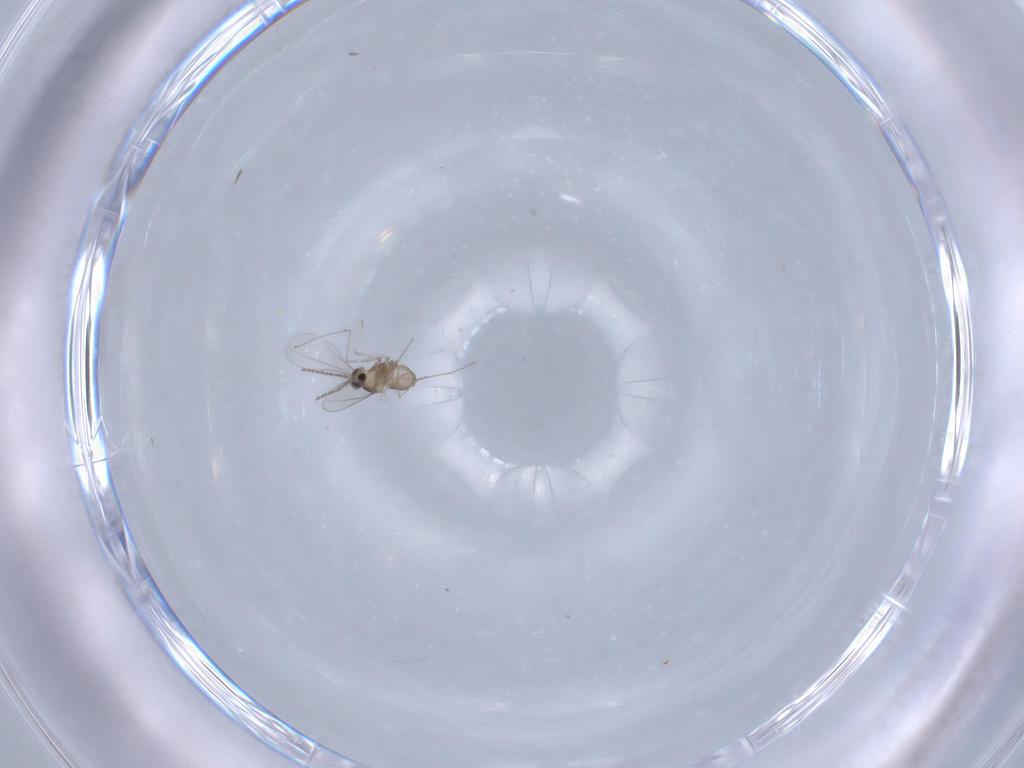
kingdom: Animalia
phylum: Arthropoda
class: Insecta
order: Diptera
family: Cecidomyiidae
